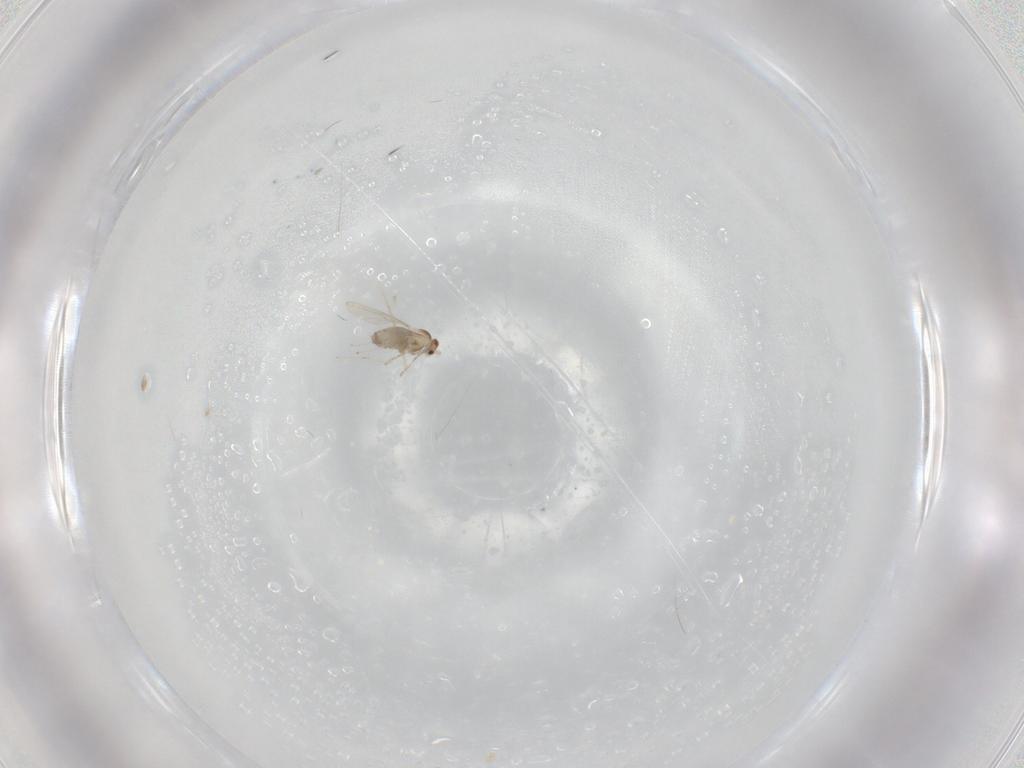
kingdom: Animalia
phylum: Arthropoda
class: Insecta
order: Diptera
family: Cecidomyiidae
